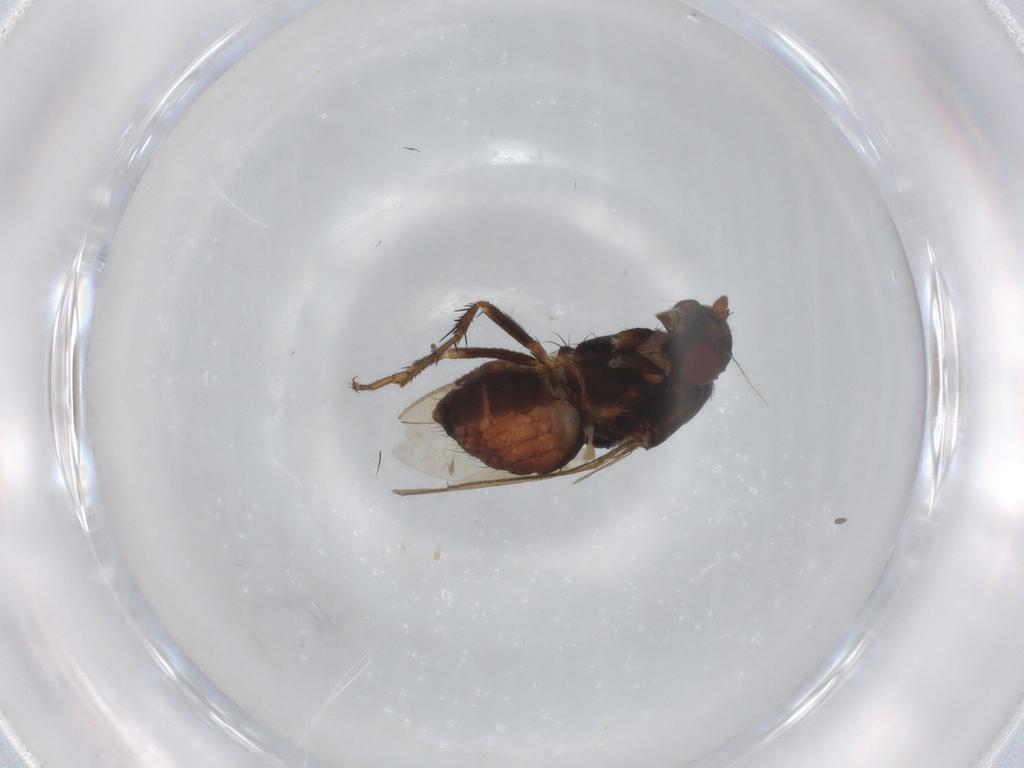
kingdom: Animalia
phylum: Arthropoda
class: Insecta
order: Diptera
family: Sphaeroceridae
